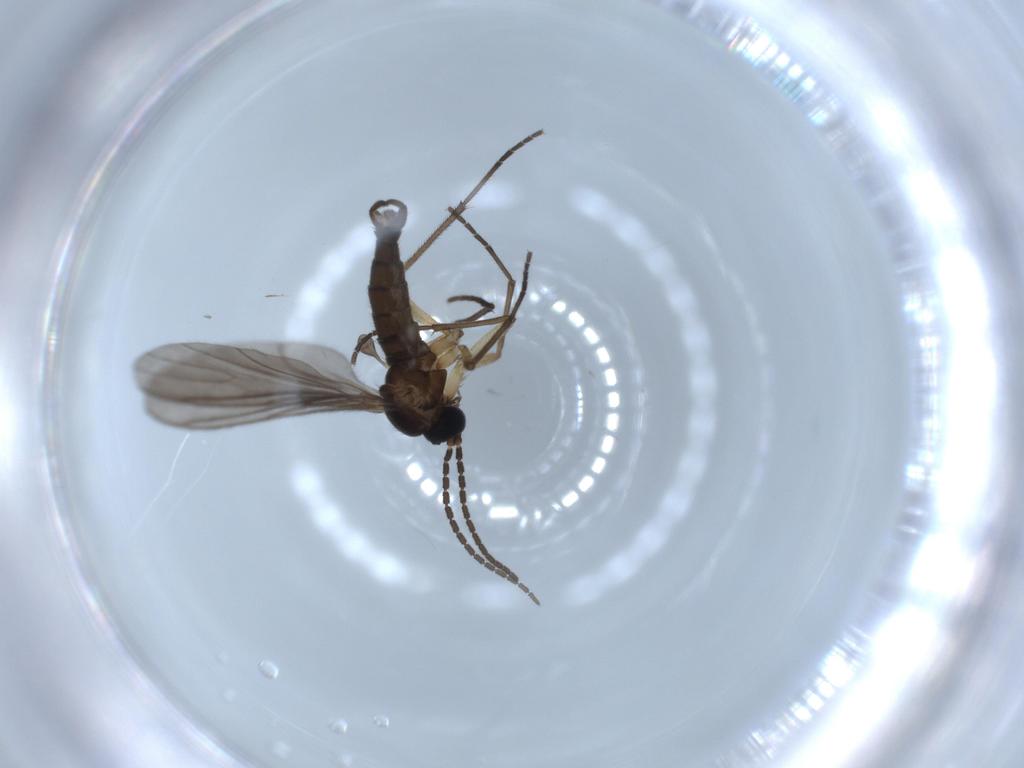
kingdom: Animalia
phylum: Arthropoda
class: Insecta
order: Diptera
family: Sciaridae
